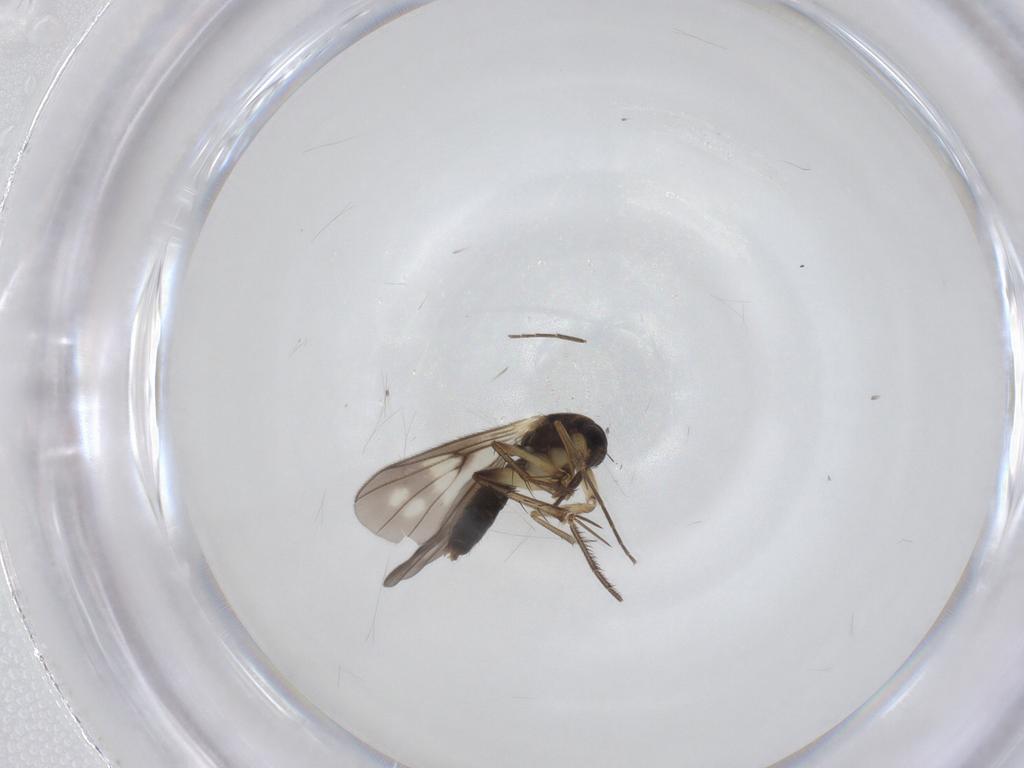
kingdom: Animalia
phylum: Arthropoda
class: Insecta
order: Diptera
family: Mycetophilidae
